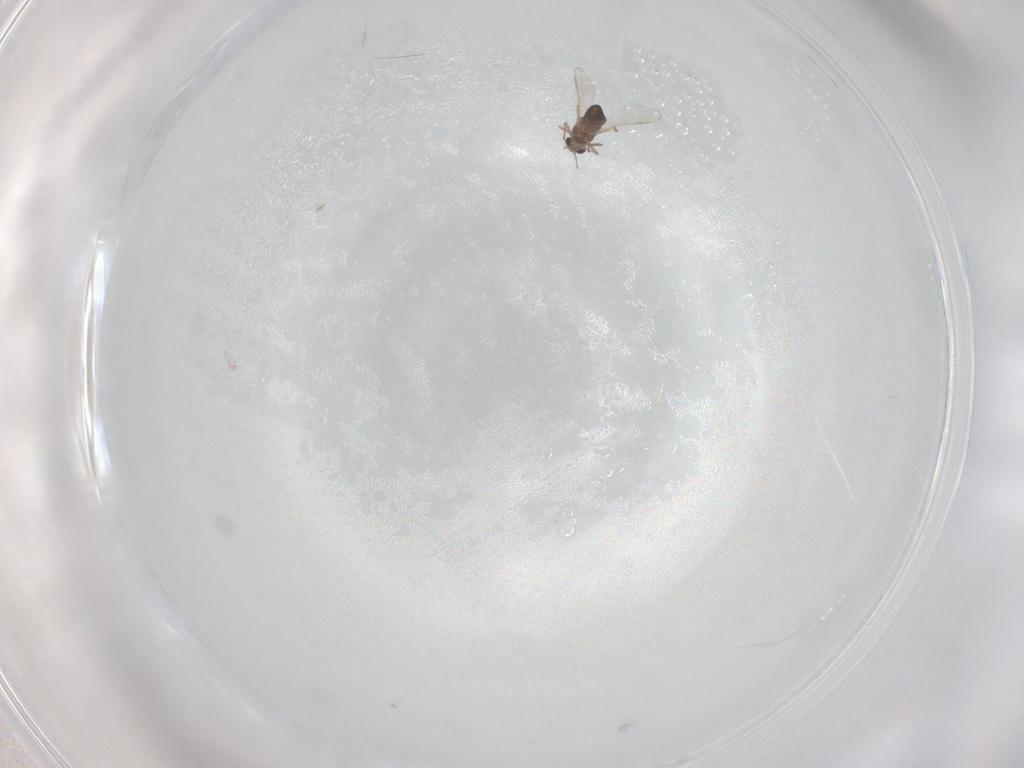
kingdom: Animalia
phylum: Arthropoda
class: Insecta
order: Diptera
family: Chironomidae
